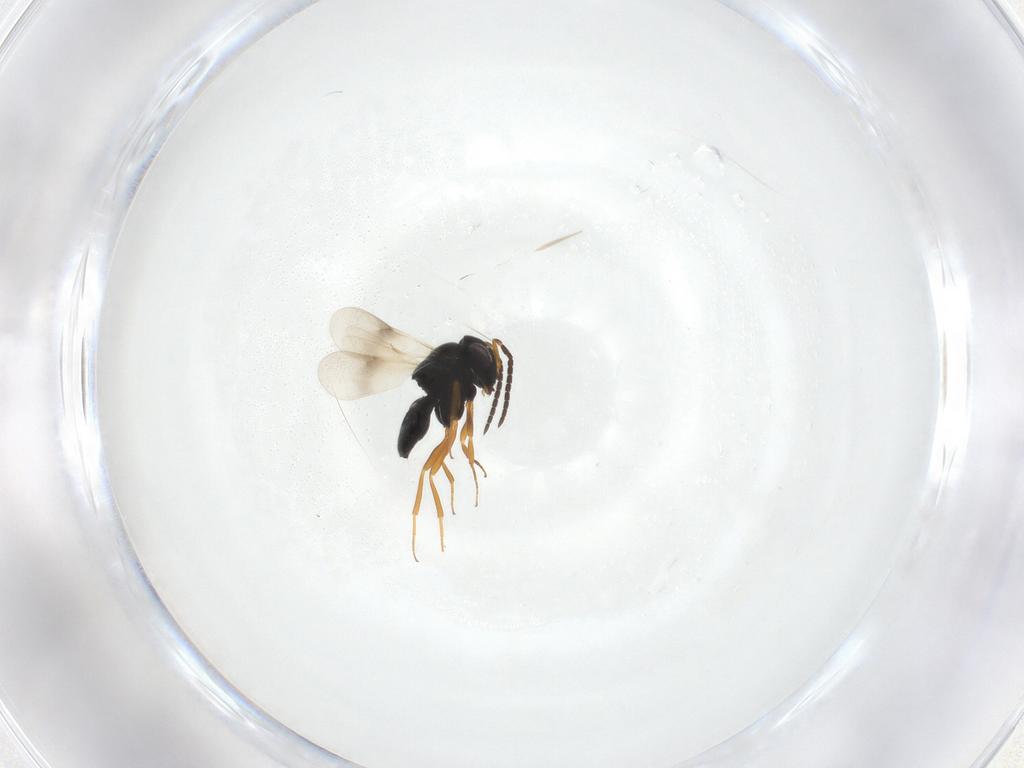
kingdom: Animalia
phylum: Arthropoda
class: Insecta
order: Hymenoptera
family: Scelionidae
